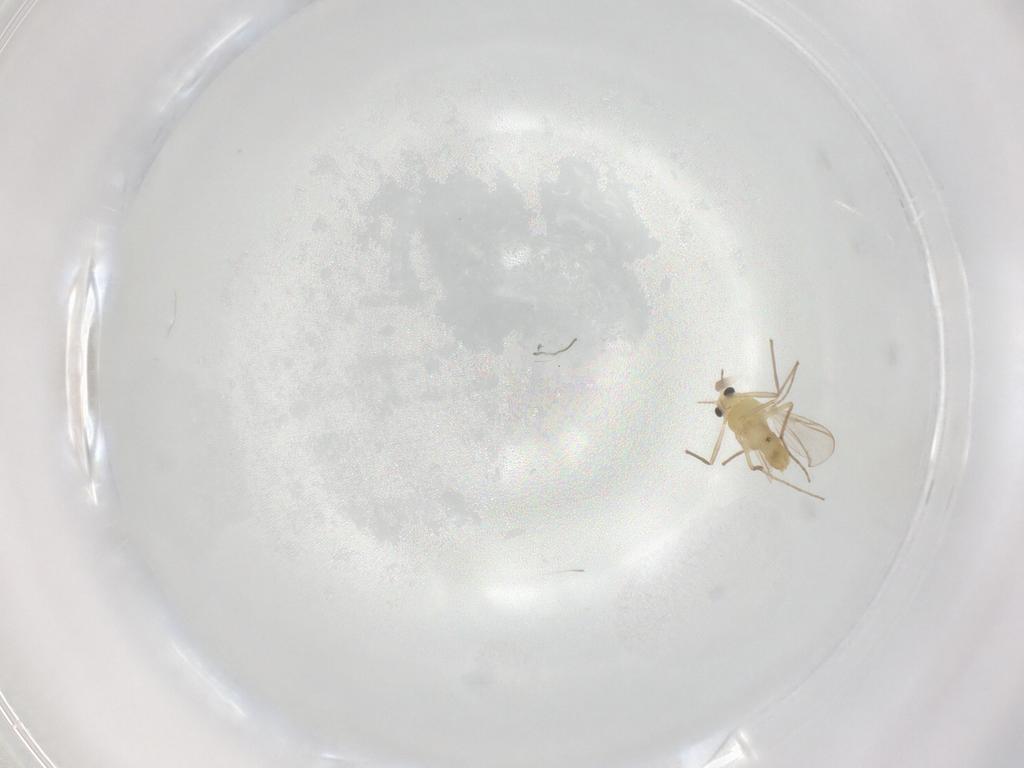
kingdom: Animalia
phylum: Arthropoda
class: Insecta
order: Diptera
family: Chironomidae
